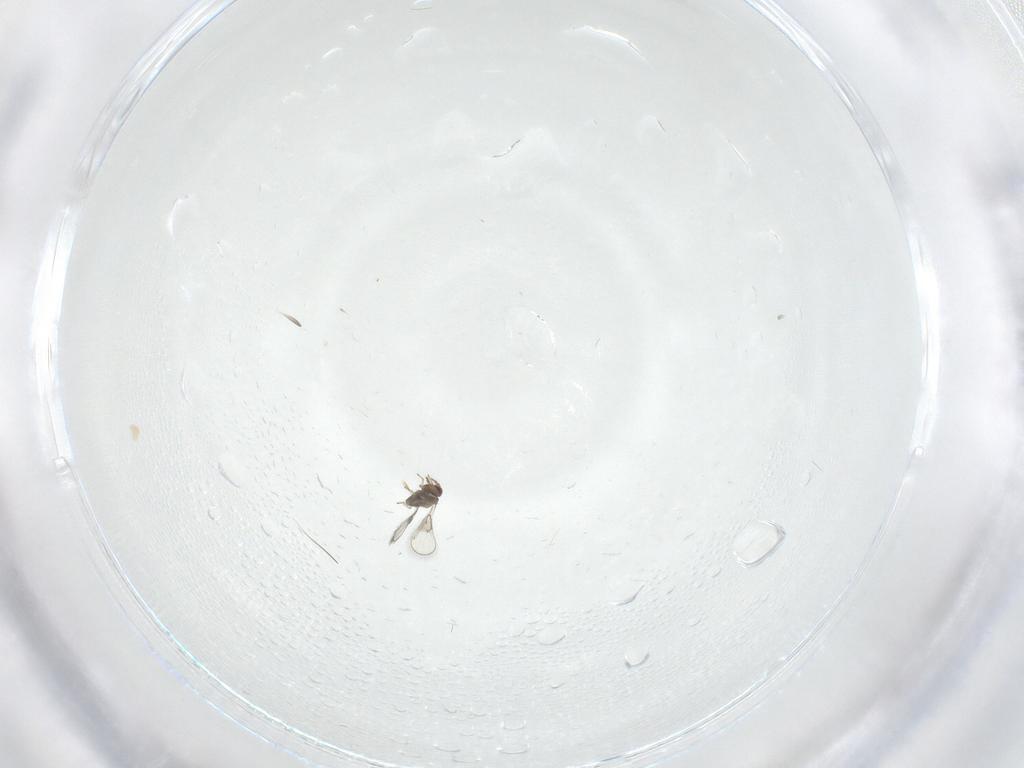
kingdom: Animalia
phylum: Arthropoda
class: Insecta
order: Hymenoptera
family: Trichogrammatidae
